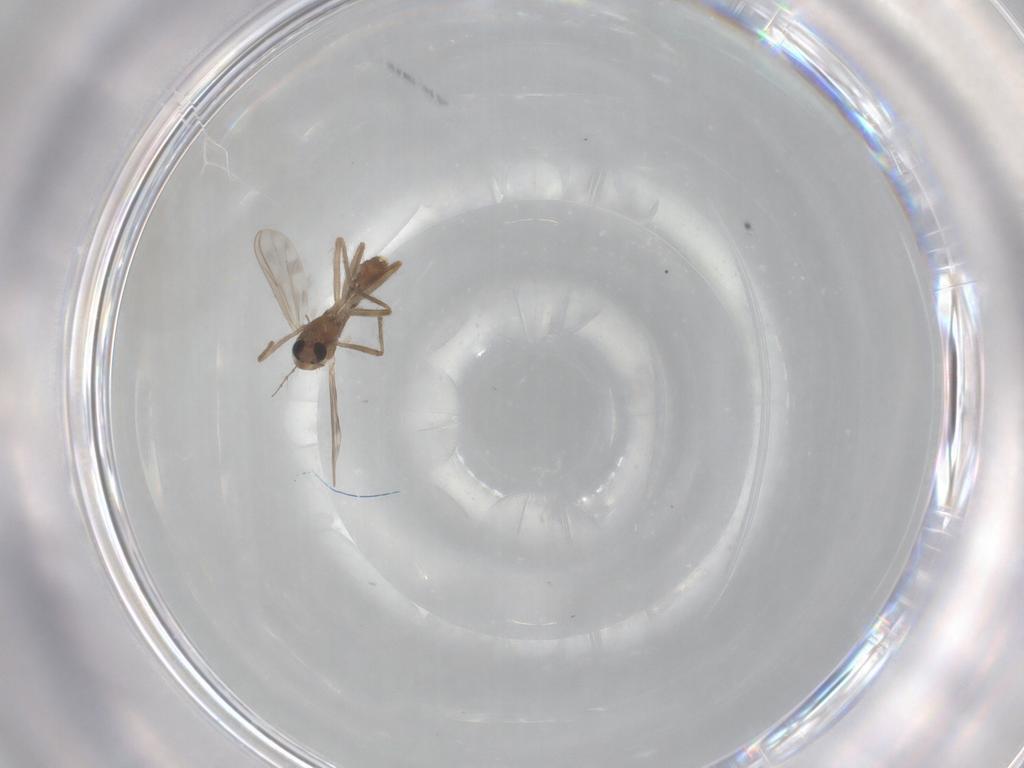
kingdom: Animalia
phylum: Arthropoda
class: Insecta
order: Diptera
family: Chironomidae
